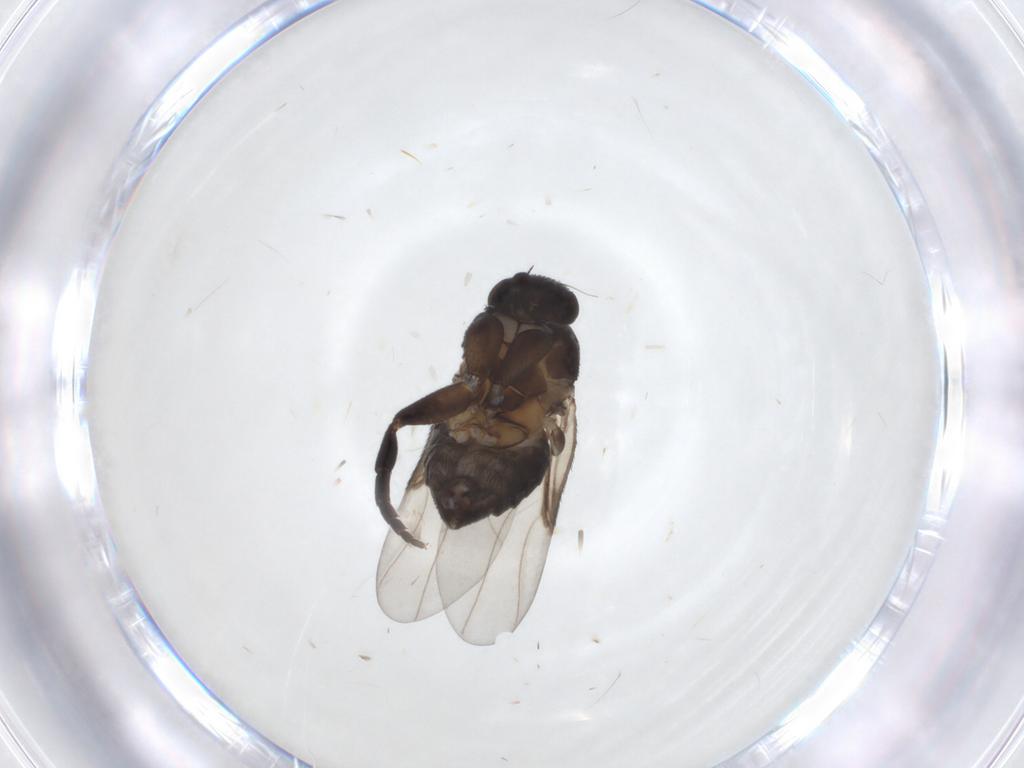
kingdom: Animalia
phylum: Arthropoda
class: Insecta
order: Diptera
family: Phoridae
